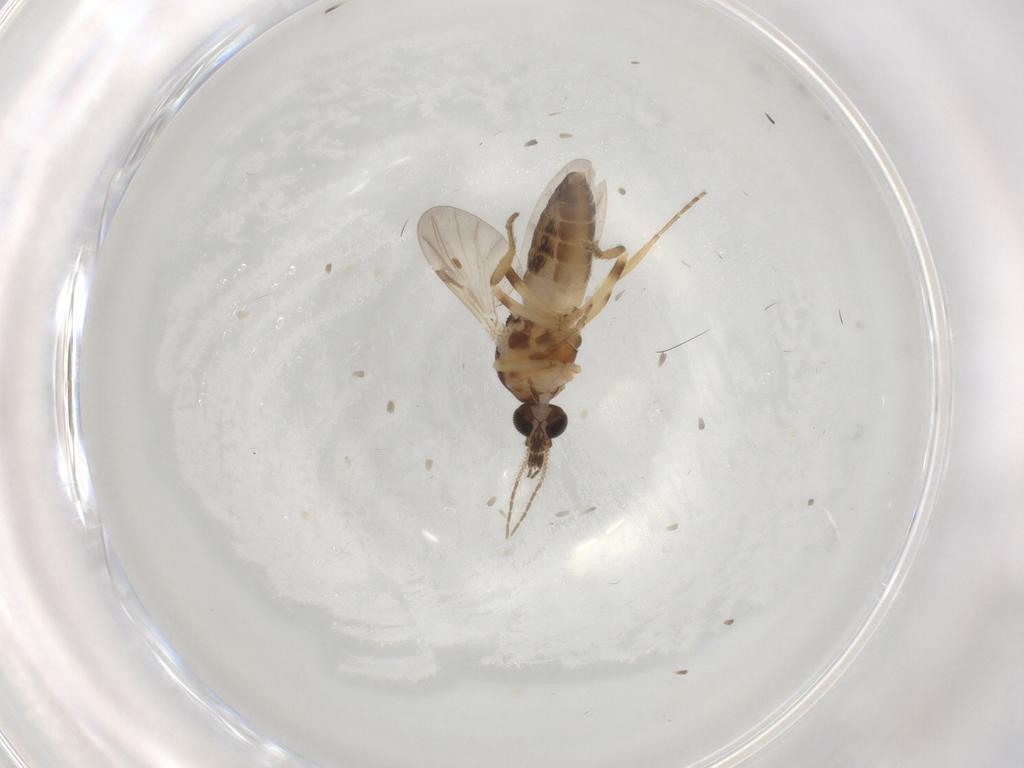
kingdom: Animalia
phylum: Arthropoda
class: Insecta
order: Diptera
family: Ceratopogonidae
